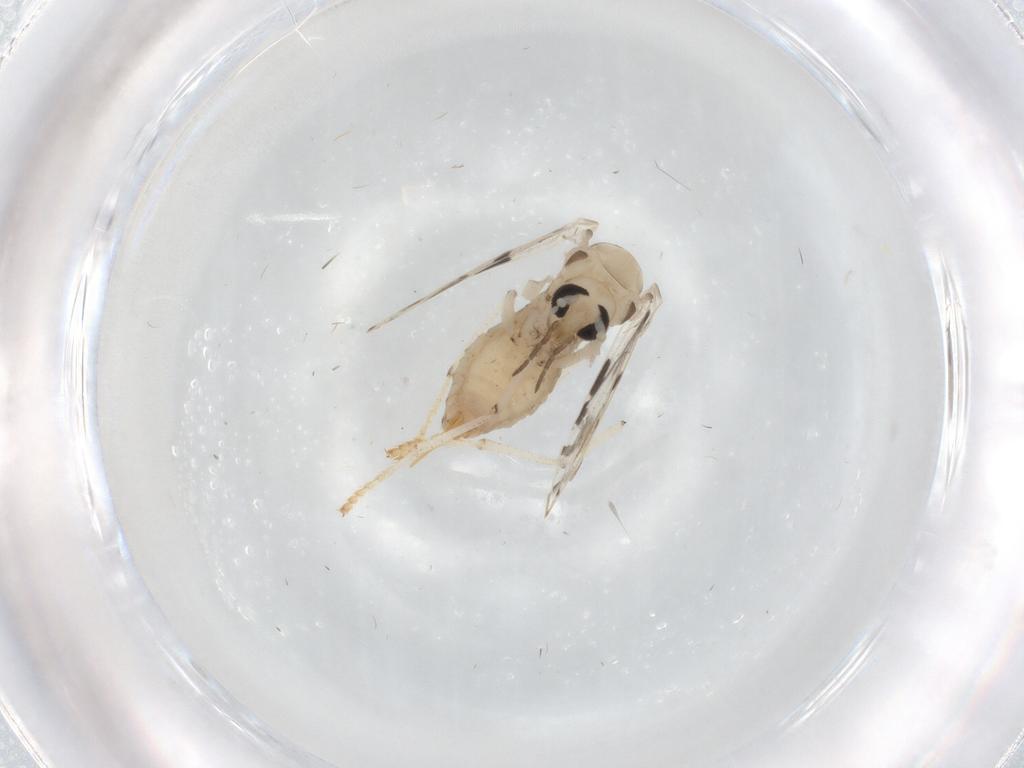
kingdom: Animalia
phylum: Arthropoda
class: Insecta
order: Diptera
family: Psychodidae
